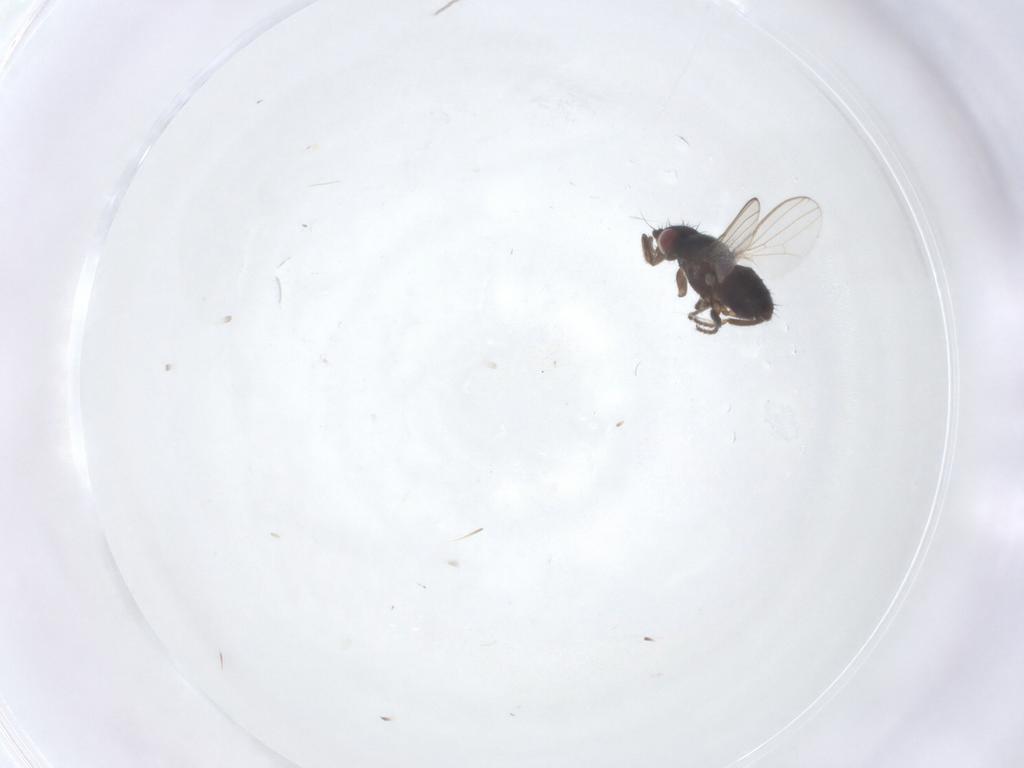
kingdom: Animalia
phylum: Arthropoda
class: Insecta
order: Diptera
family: Milichiidae
